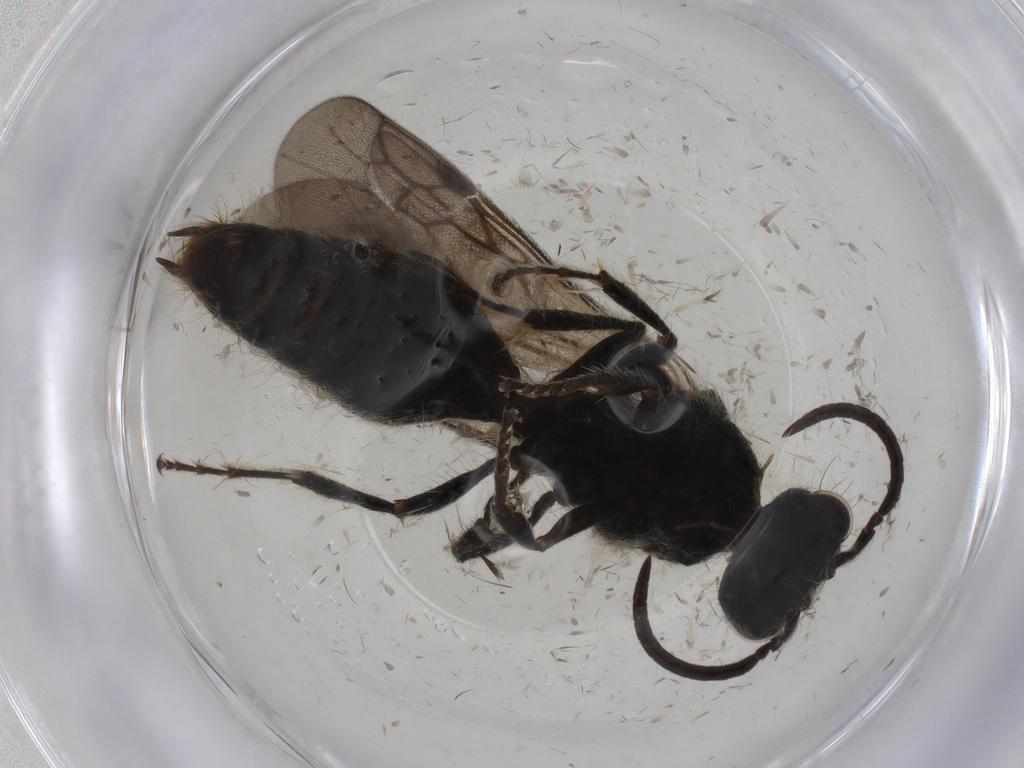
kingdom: Animalia
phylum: Arthropoda
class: Insecta
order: Hymenoptera
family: Mutillidae
